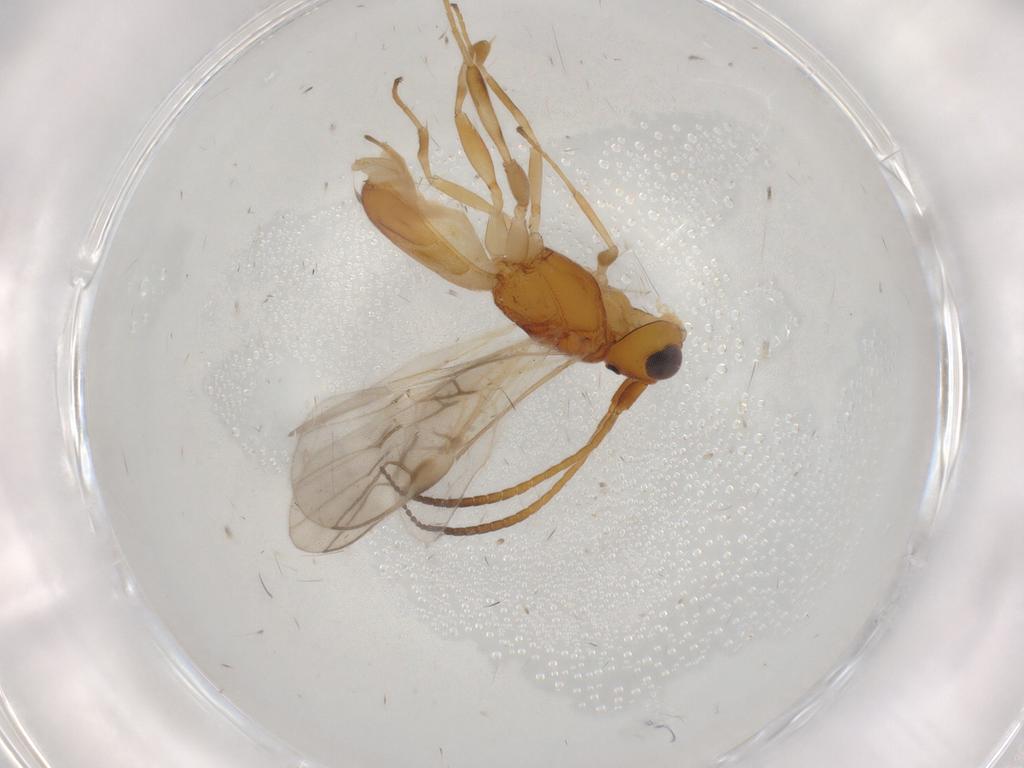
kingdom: Animalia
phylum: Arthropoda
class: Insecta
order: Hymenoptera
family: Braconidae
